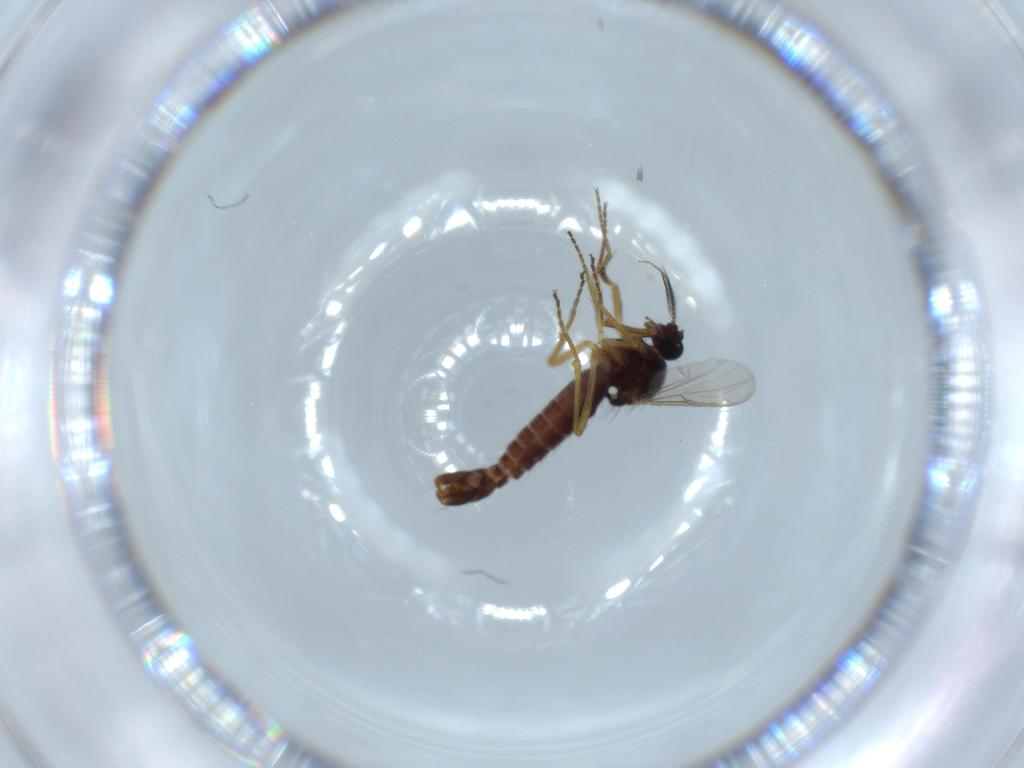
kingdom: Animalia
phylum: Arthropoda
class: Insecta
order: Diptera
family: Ceratopogonidae
